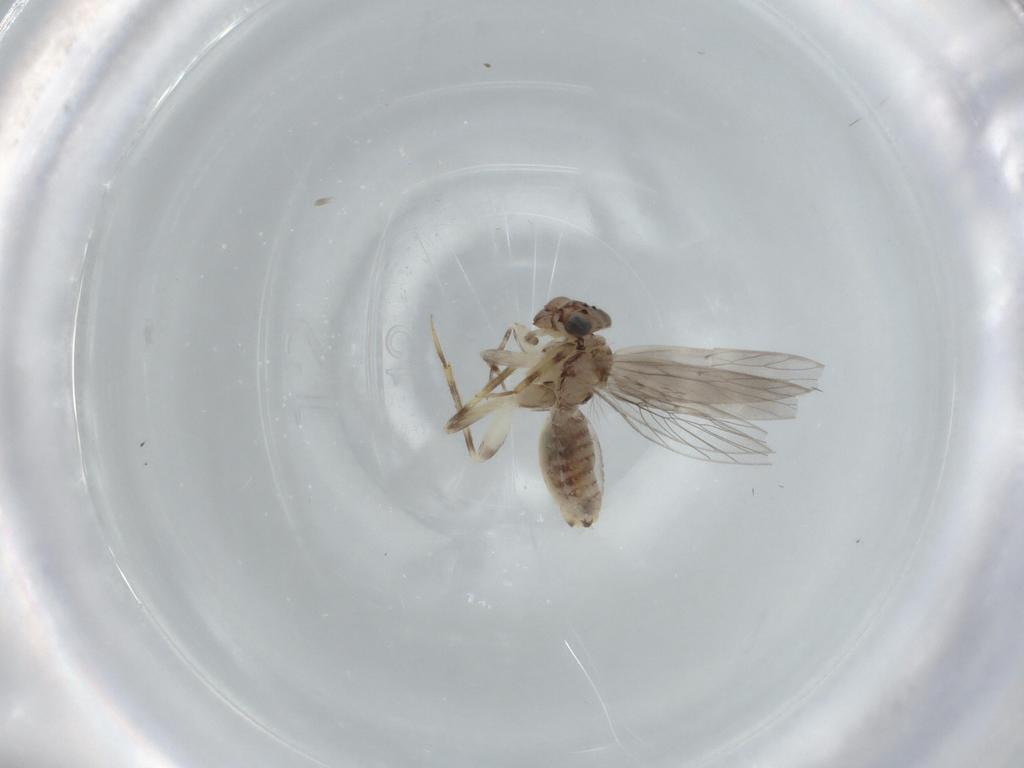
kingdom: Animalia
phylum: Arthropoda
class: Insecta
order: Psocodea
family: Lepidopsocidae
